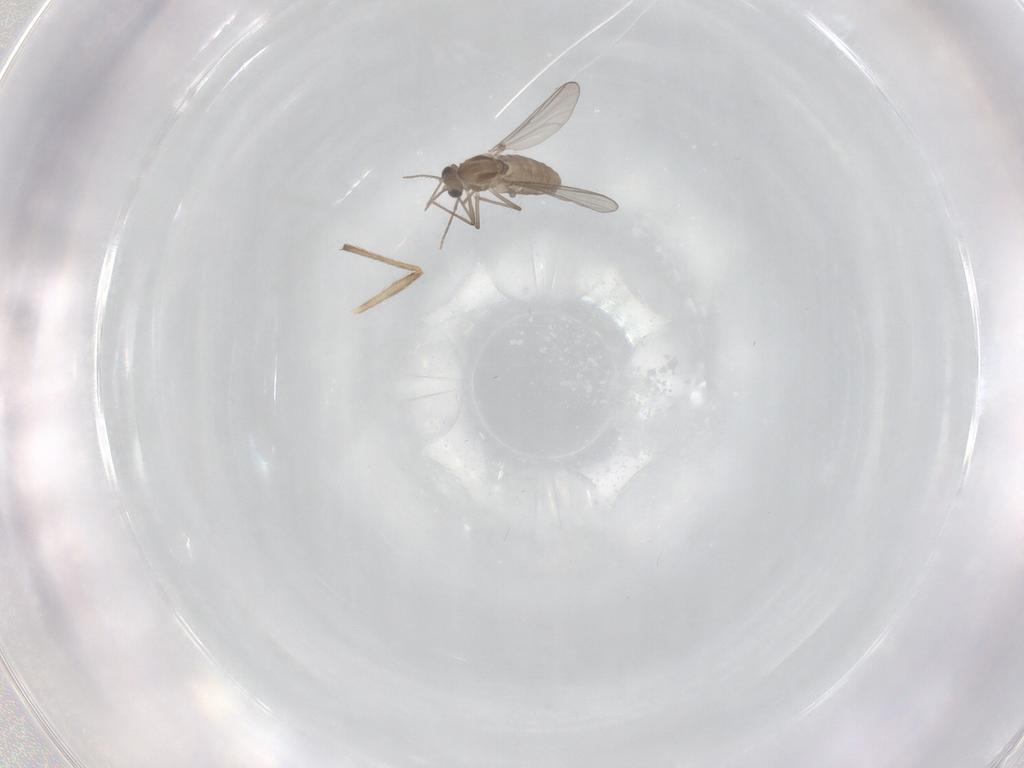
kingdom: Animalia
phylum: Arthropoda
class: Insecta
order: Diptera
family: Chironomidae
